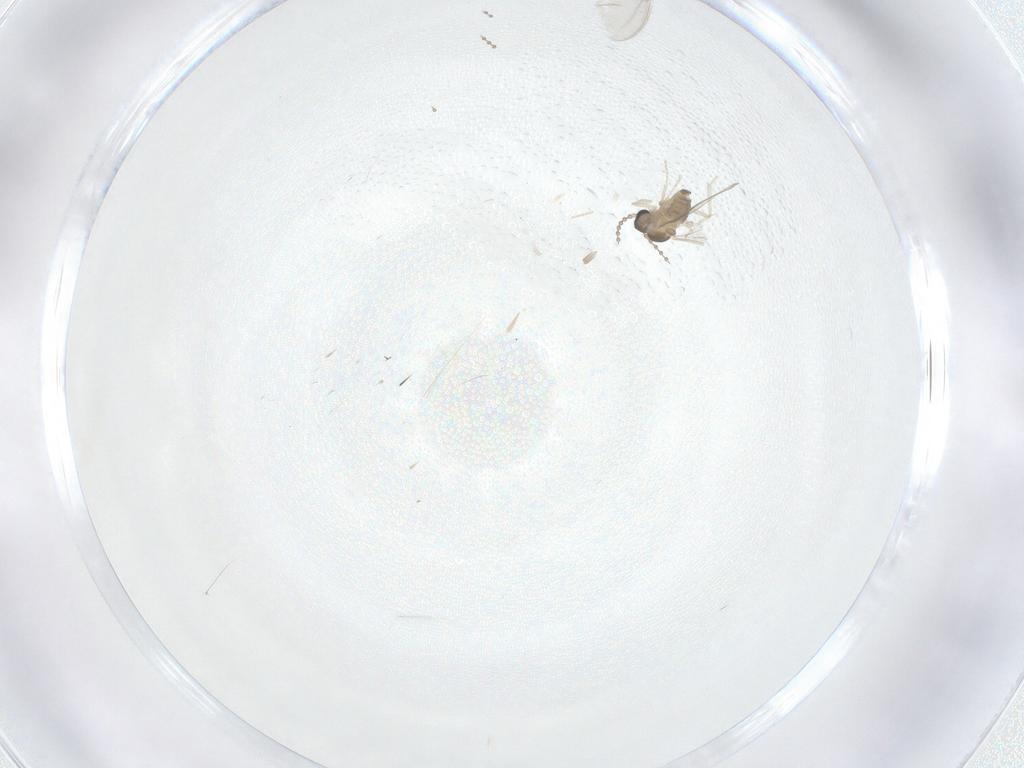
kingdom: Animalia
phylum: Arthropoda
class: Insecta
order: Diptera
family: Cecidomyiidae
